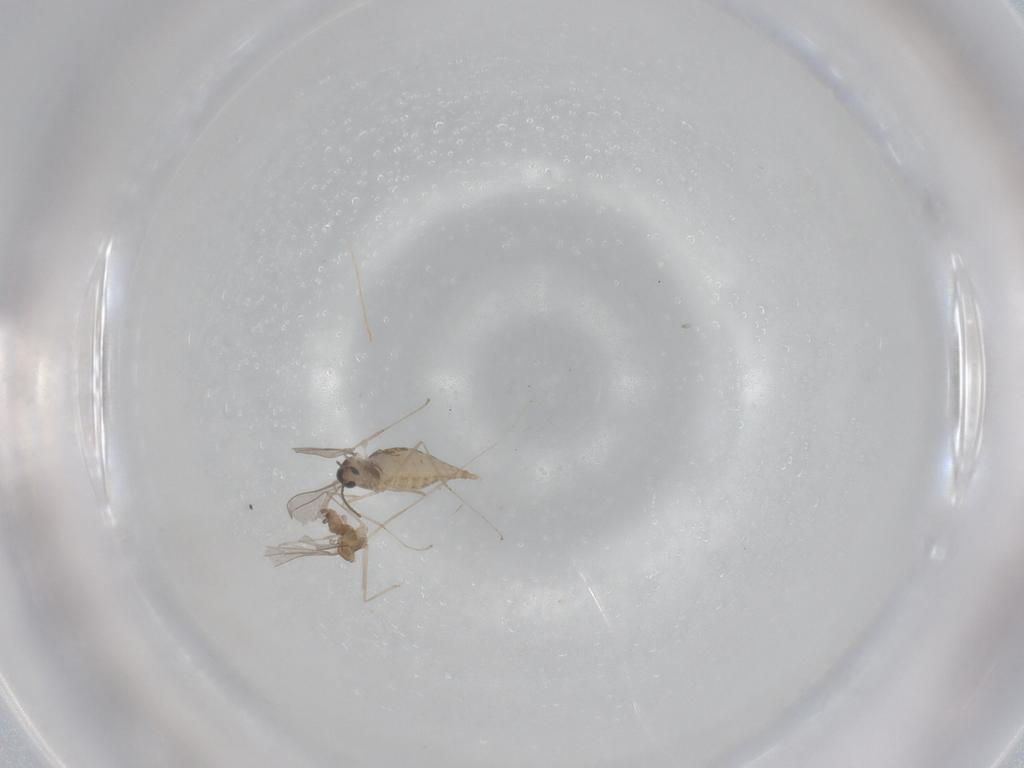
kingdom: Animalia
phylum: Arthropoda
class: Insecta
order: Diptera
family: Cecidomyiidae
